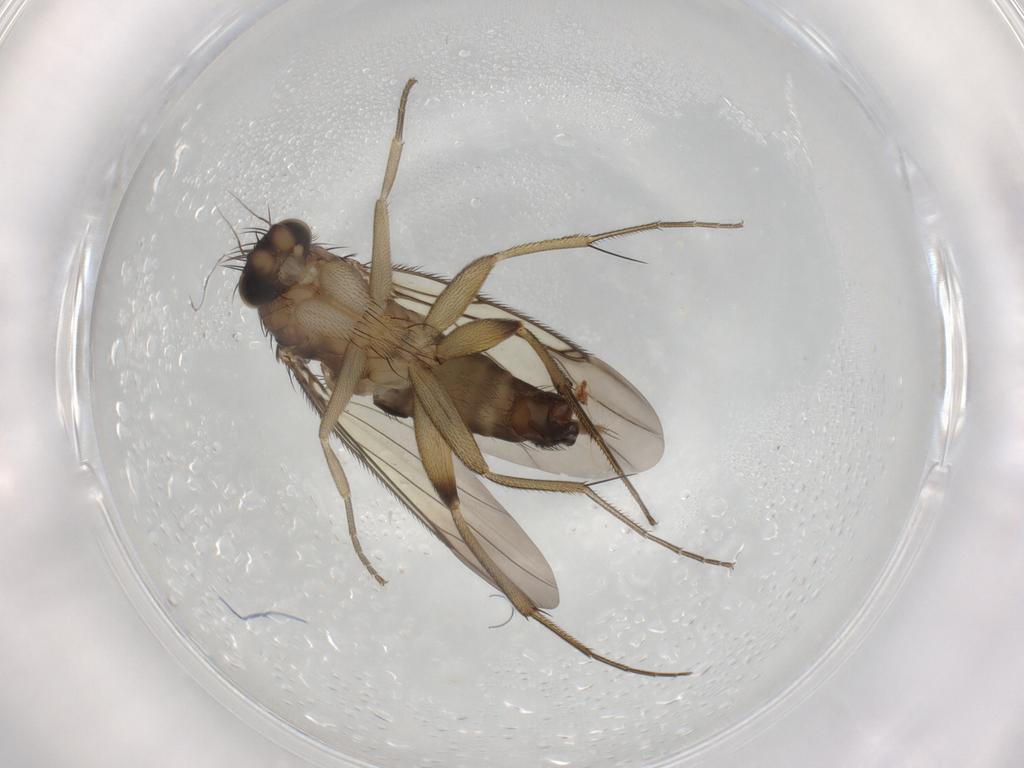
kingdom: Animalia
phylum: Arthropoda
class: Insecta
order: Diptera
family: Phoridae
